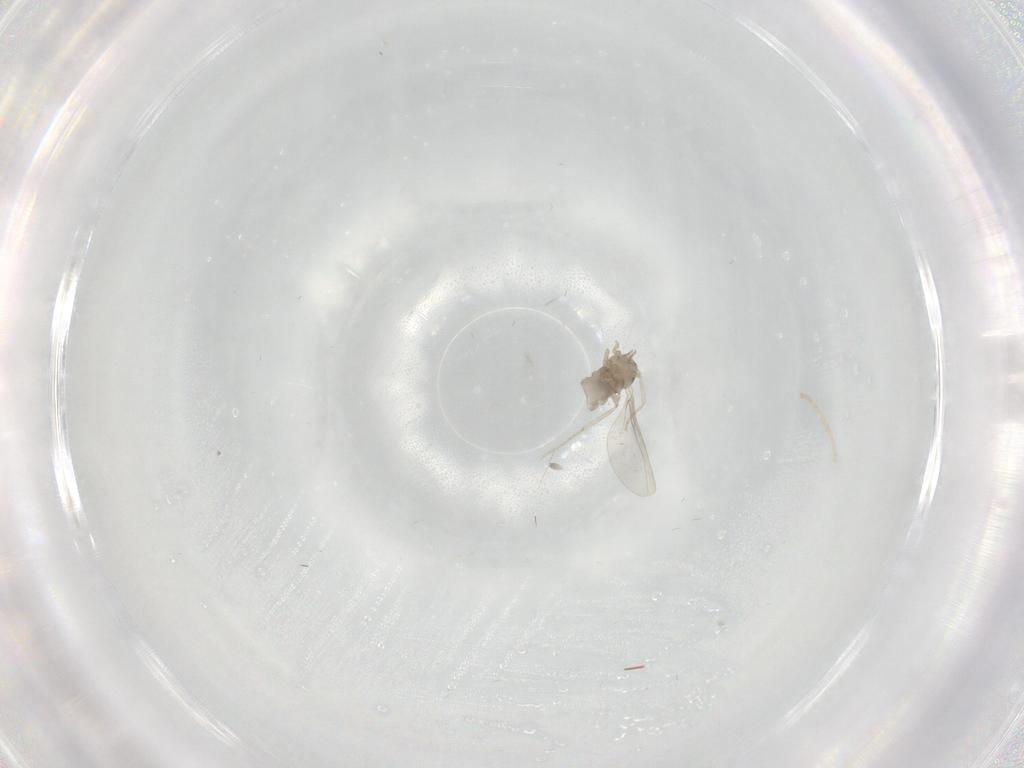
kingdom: Animalia
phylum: Arthropoda
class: Insecta
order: Diptera
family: Cecidomyiidae
